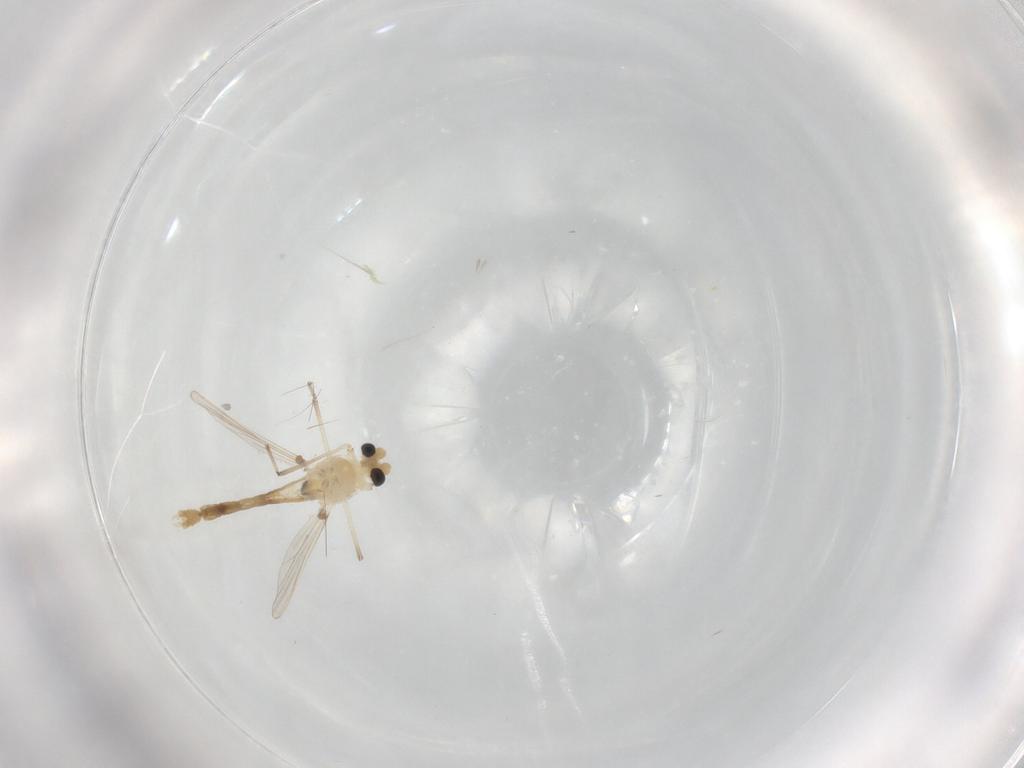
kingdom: Animalia
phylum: Arthropoda
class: Insecta
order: Diptera
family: Chironomidae
